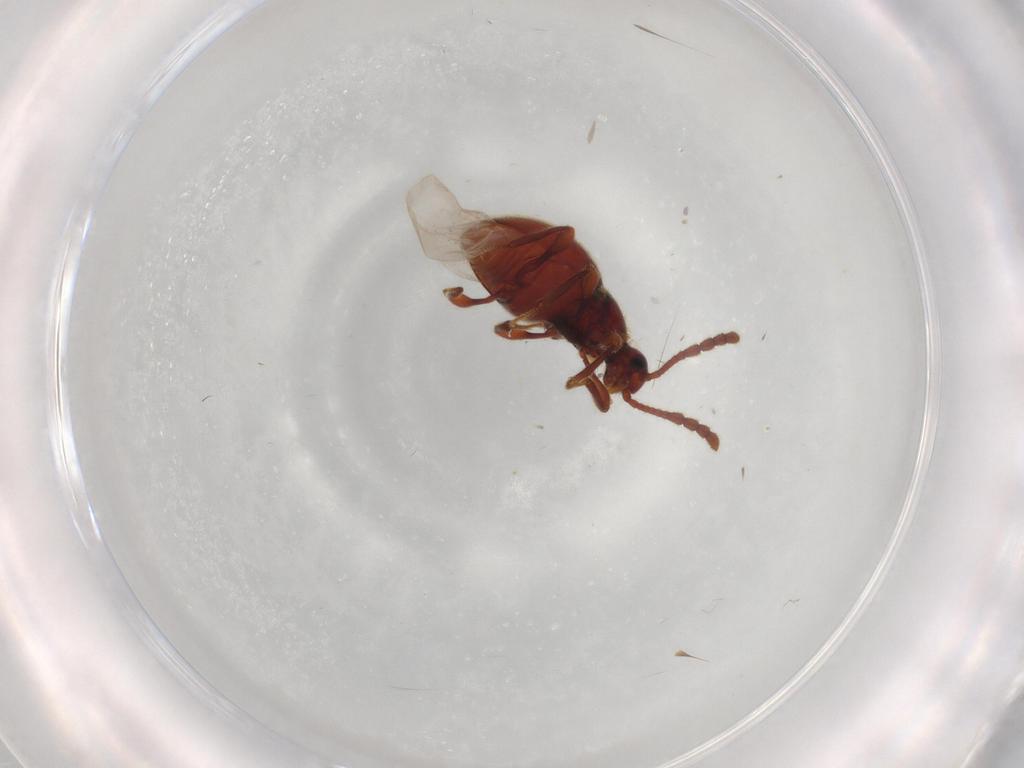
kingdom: Animalia
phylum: Arthropoda
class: Insecta
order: Coleoptera
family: Staphylinidae
